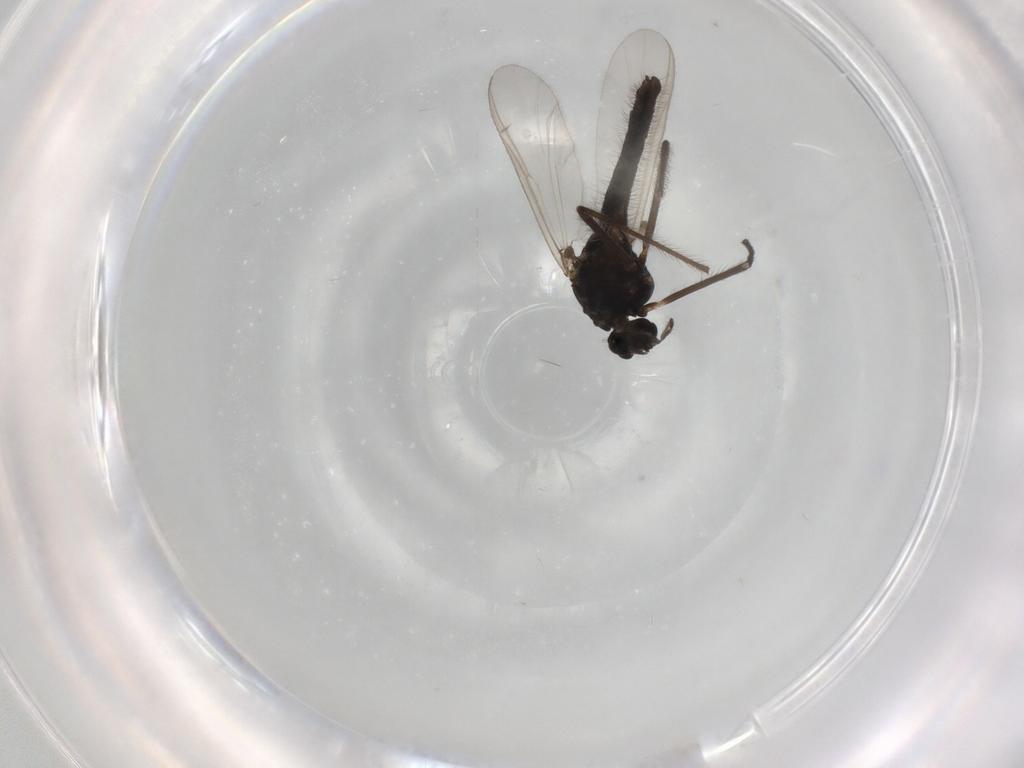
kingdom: Animalia
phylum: Arthropoda
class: Insecta
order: Diptera
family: Chironomidae
